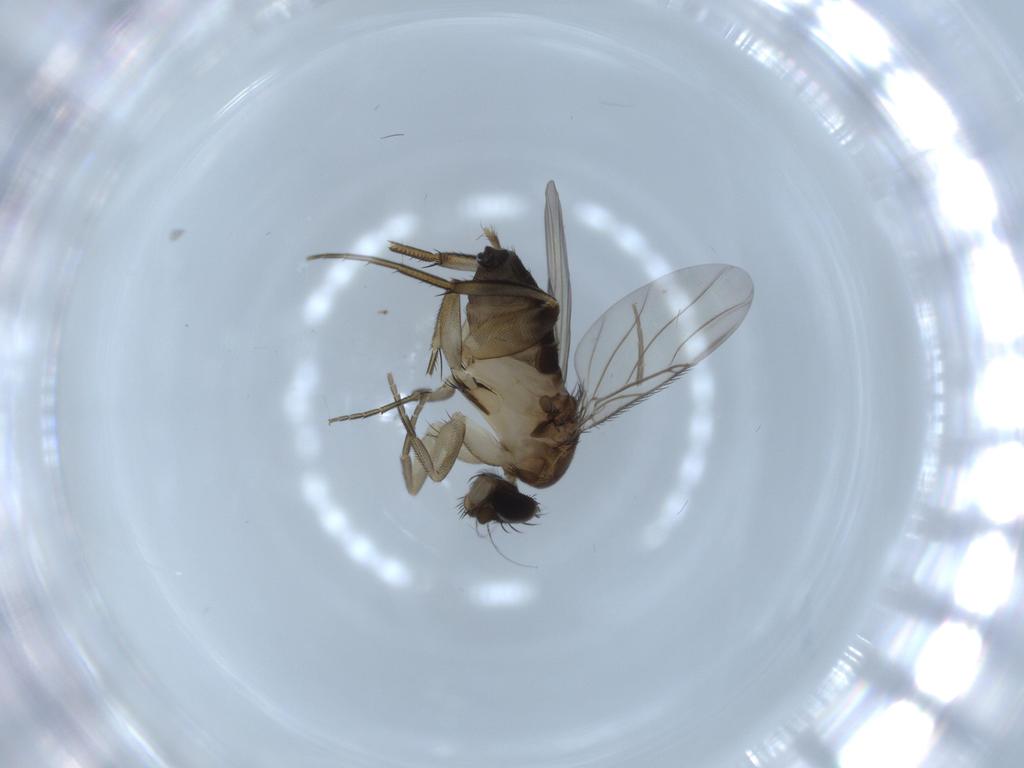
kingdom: Animalia
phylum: Arthropoda
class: Insecta
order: Diptera
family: Phoridae
